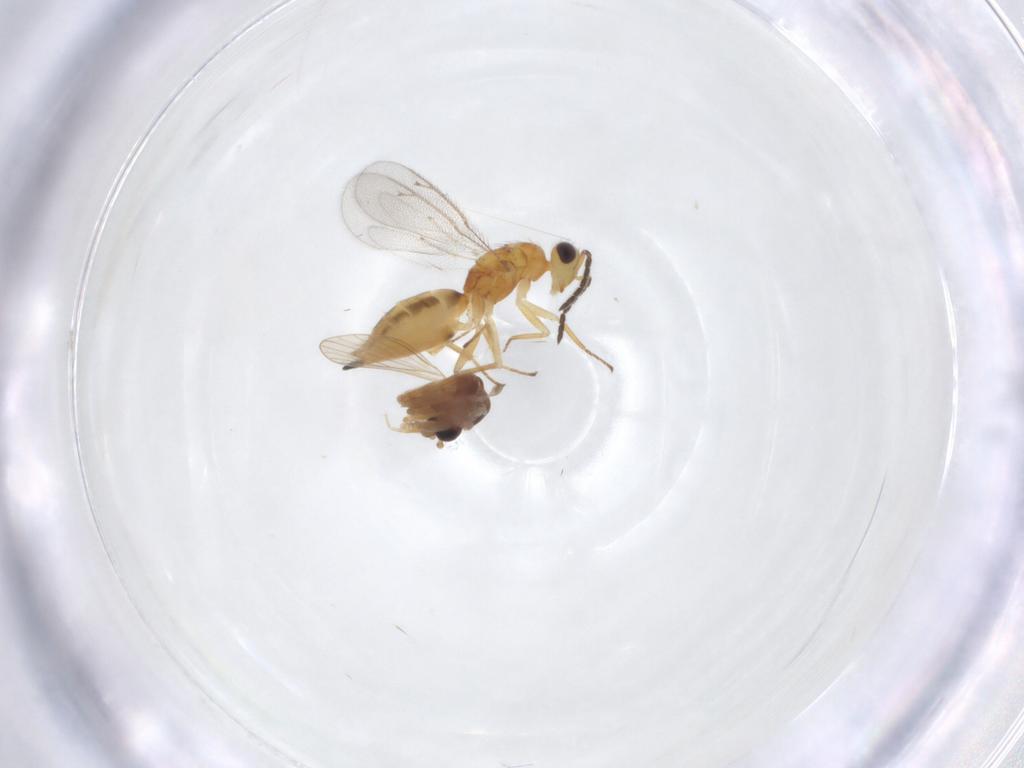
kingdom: Animalia
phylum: Arthropoda
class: Insecta
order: Diptera
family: Psychodidae
